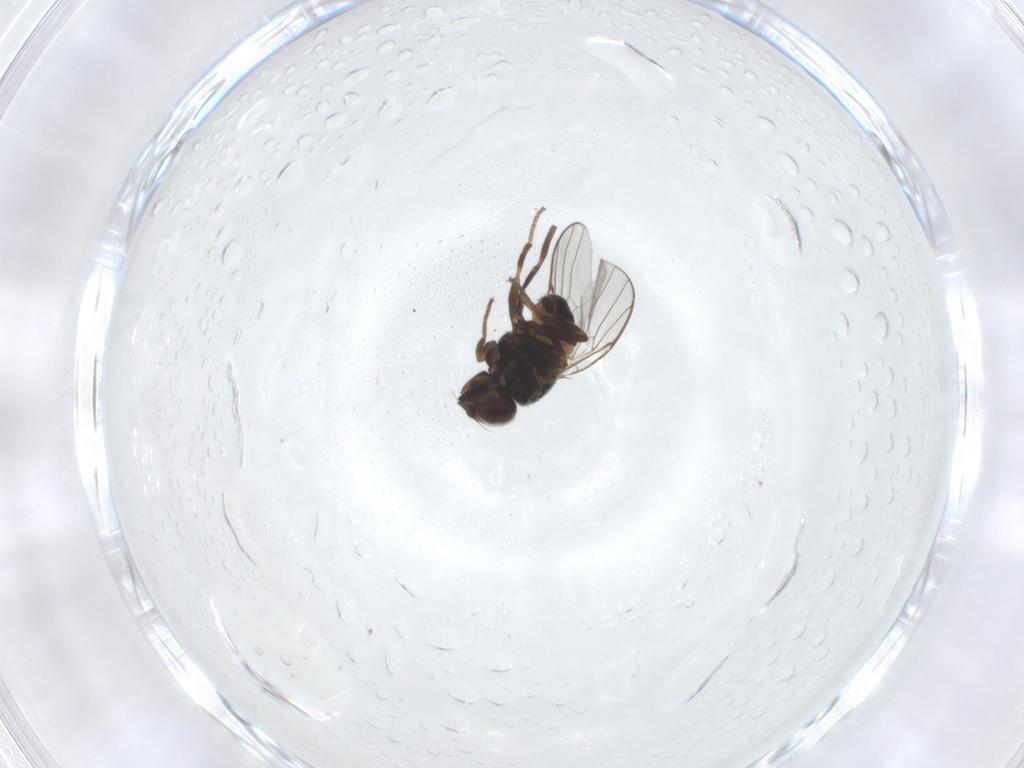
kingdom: Animalia
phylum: Arthropoda
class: Insecta
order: Diptera
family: Chloropidae
